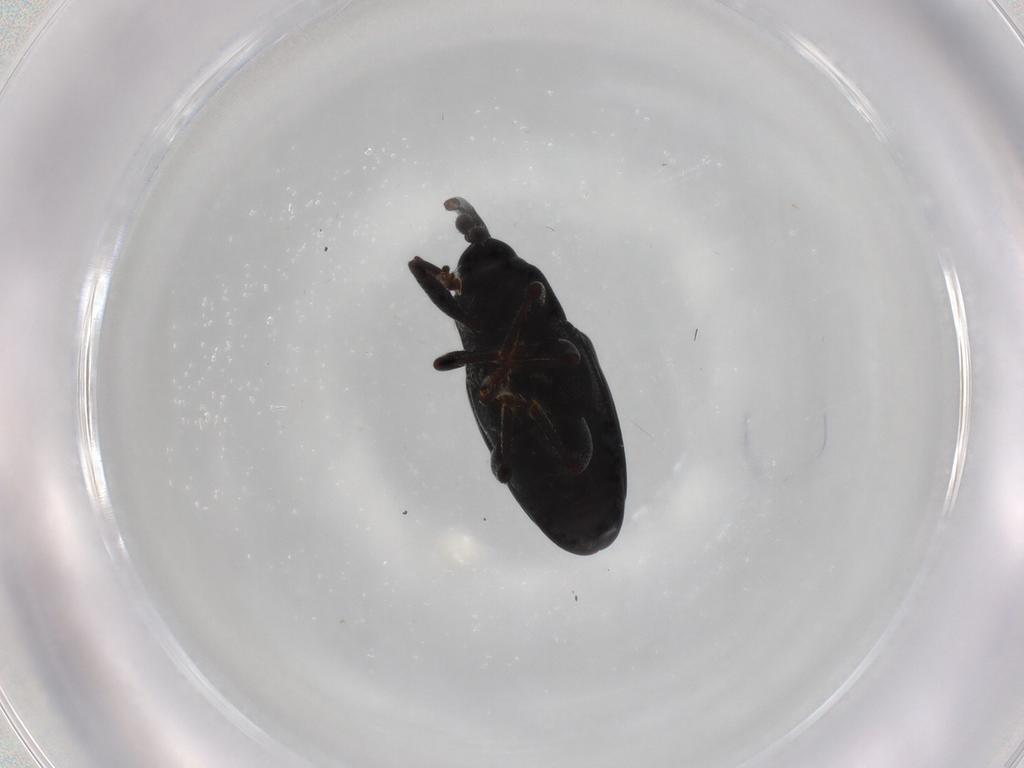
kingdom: Animalia
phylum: Arthropoda
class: Insecta
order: Coleoptera
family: Curculionidae
